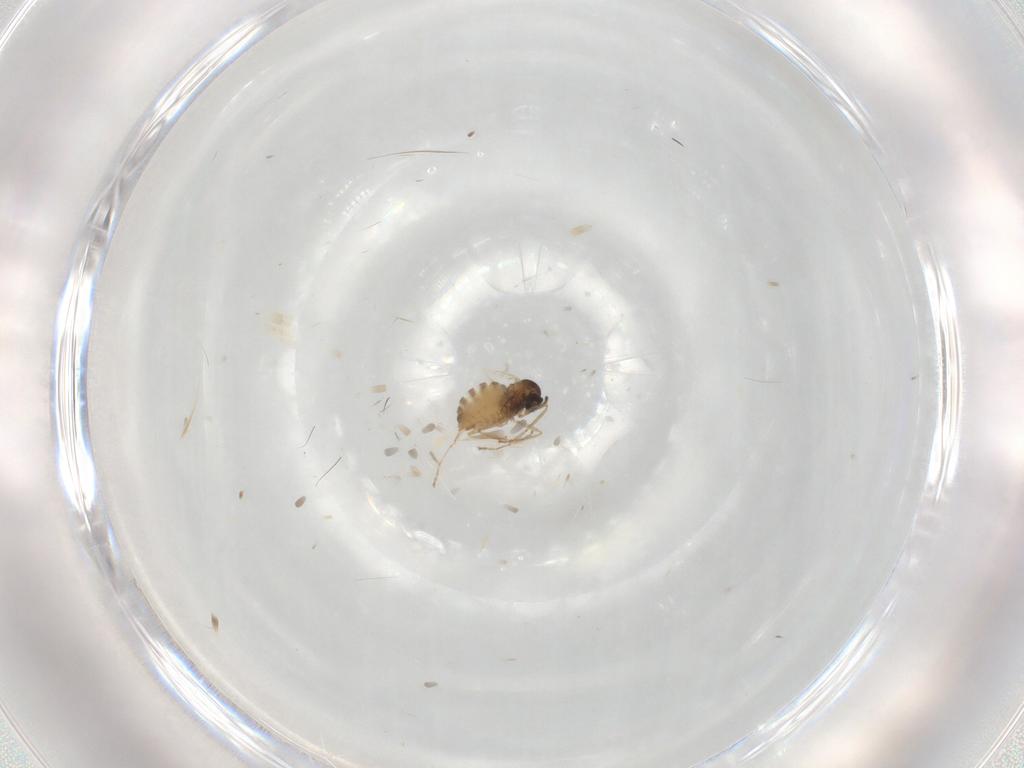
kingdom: Animalia
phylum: Arthropoda
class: Insecta
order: Diptera
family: Cecidomyiidae
